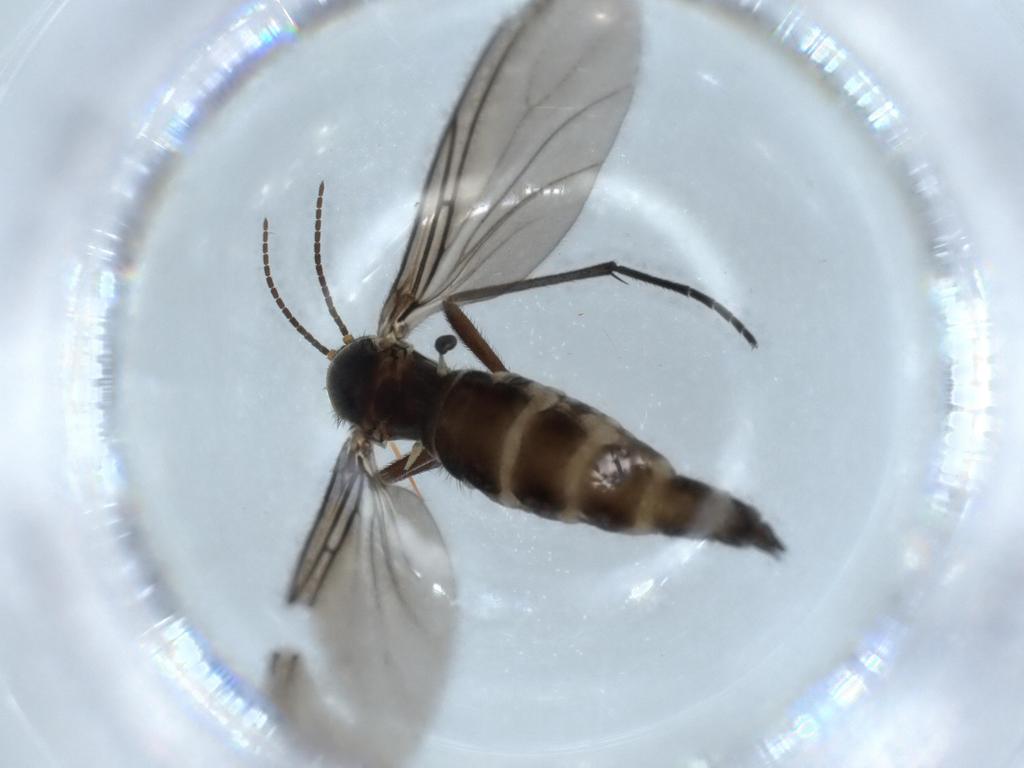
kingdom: Animalia
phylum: Arthropoda
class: Insecta
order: Diptera
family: Sciaridae
